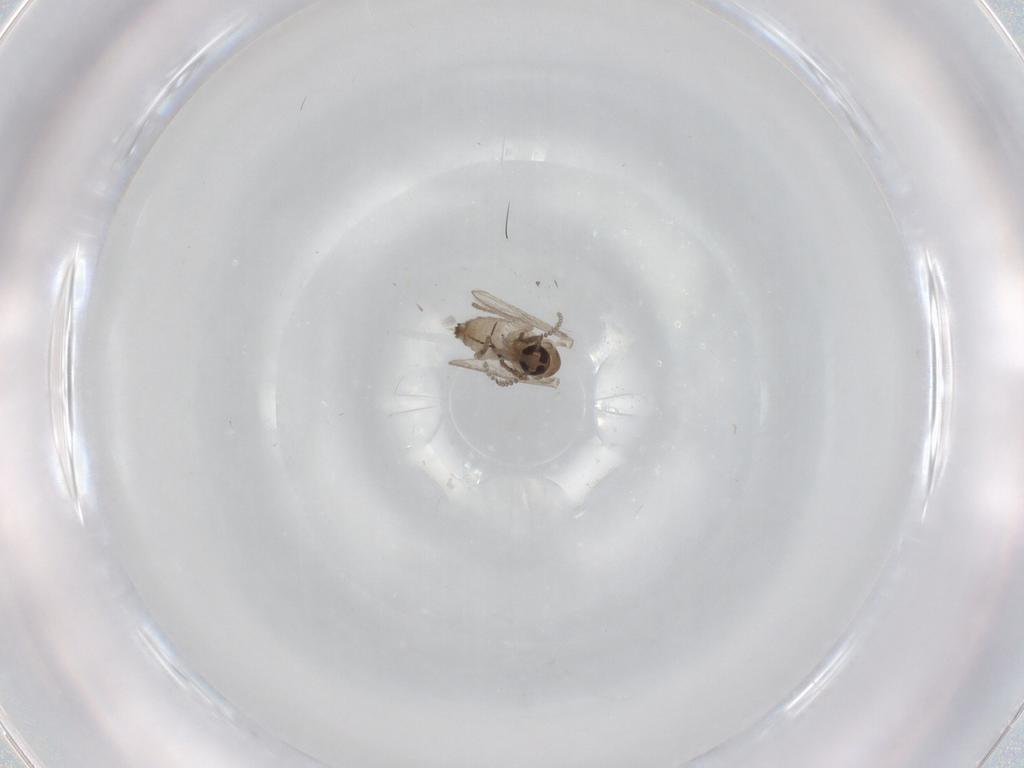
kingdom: Animalia
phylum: Arthropoda
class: Insecta
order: Diptera
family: Psychodidae
